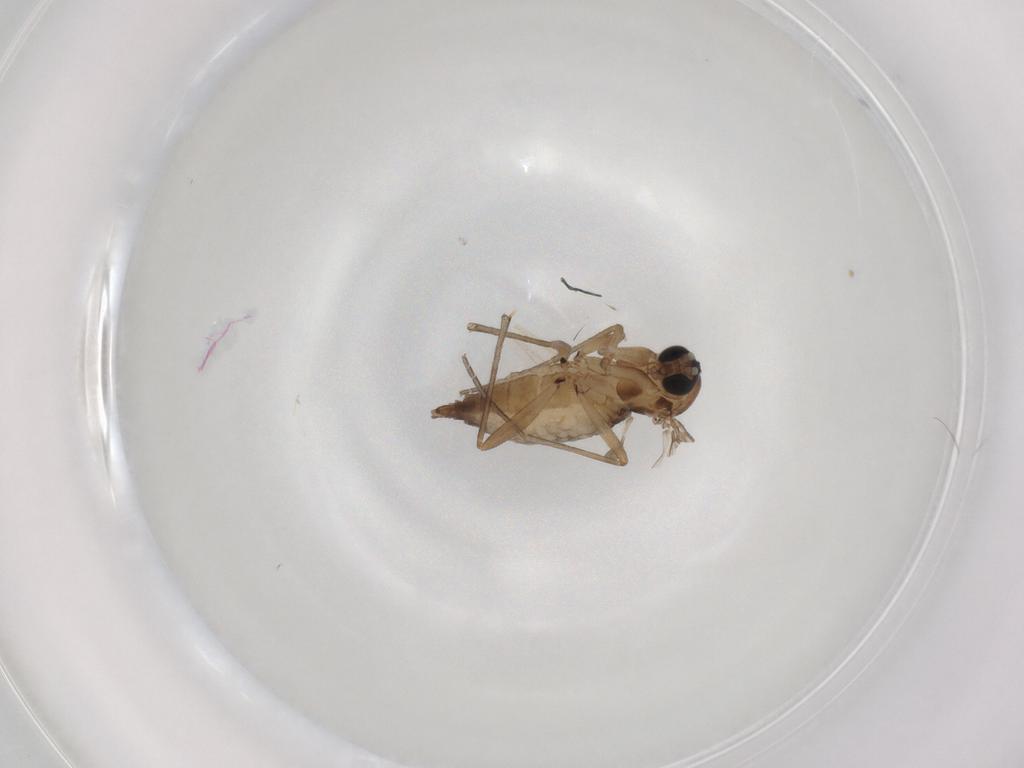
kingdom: Animalia
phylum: Arthropoda
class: Insecta
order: Diptera
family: Sciaridae
